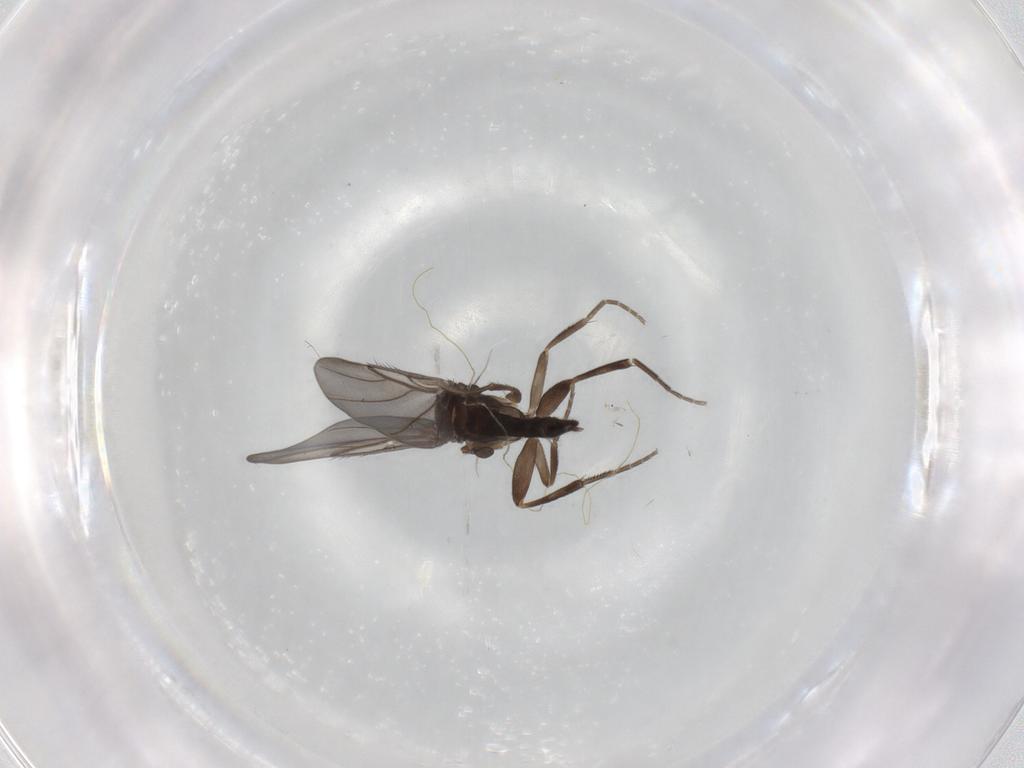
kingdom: Animalia
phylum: Arthropoda
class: Insecta
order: Diptera
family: Phoridae
